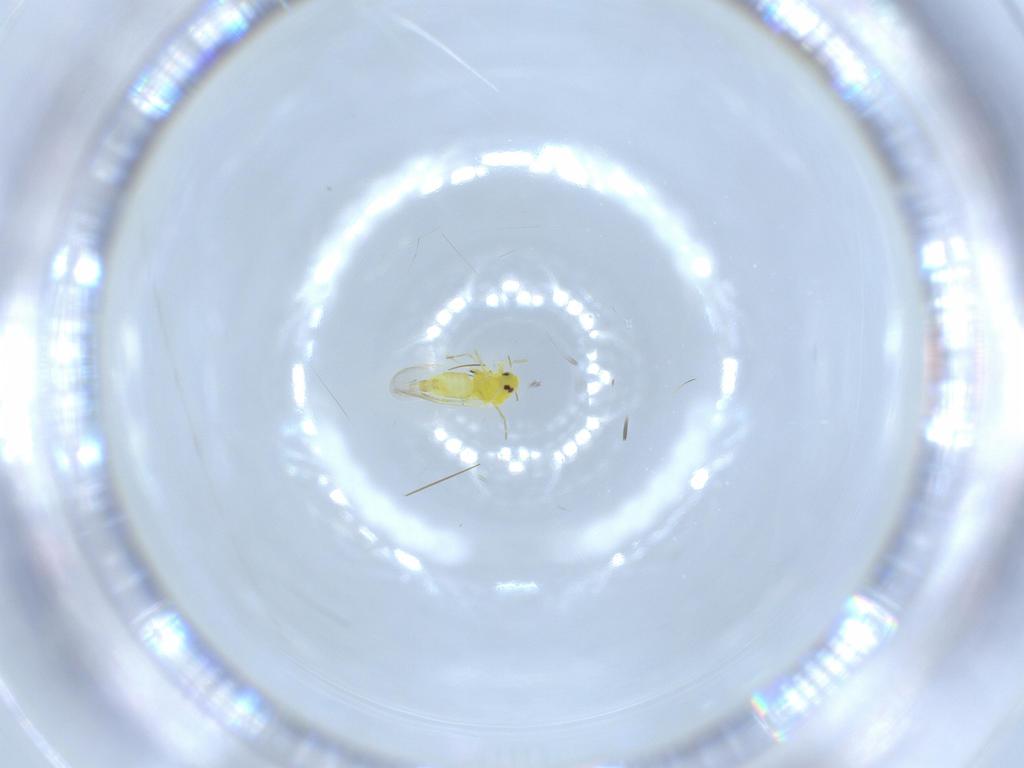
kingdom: Animalia
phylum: Arthropoda
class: Insecta
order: Hemiptera
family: Aleyrodidae
